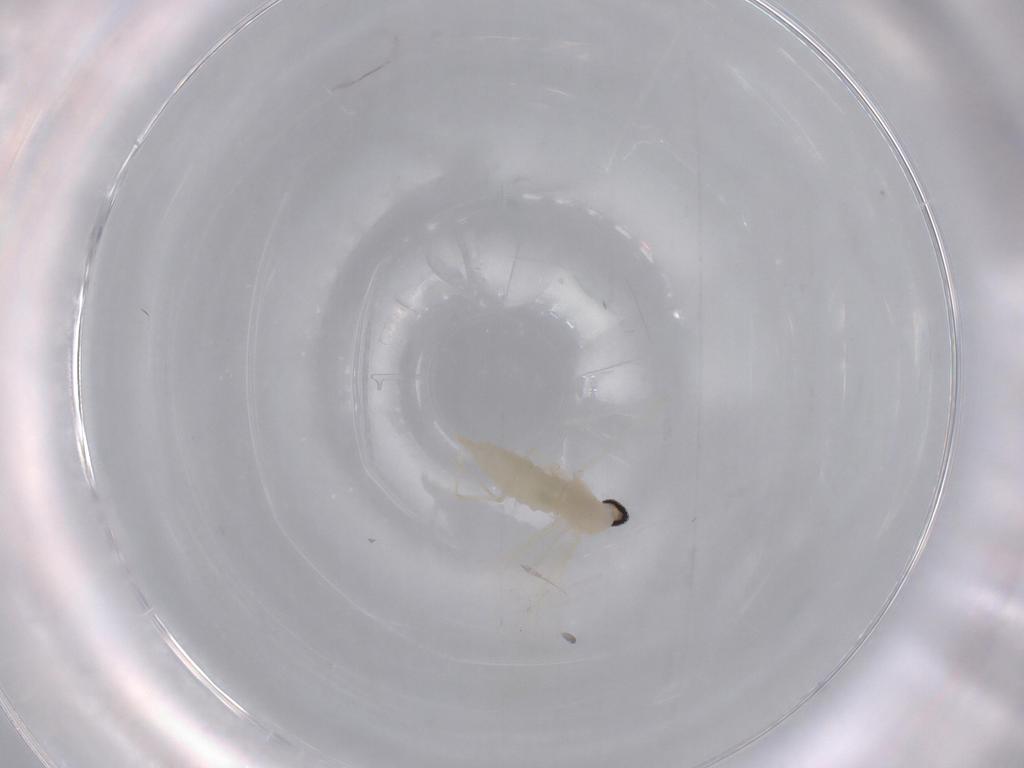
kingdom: Animalia
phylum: Arthropoda
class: Insecta
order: Diptera
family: Cecidomyiidae
